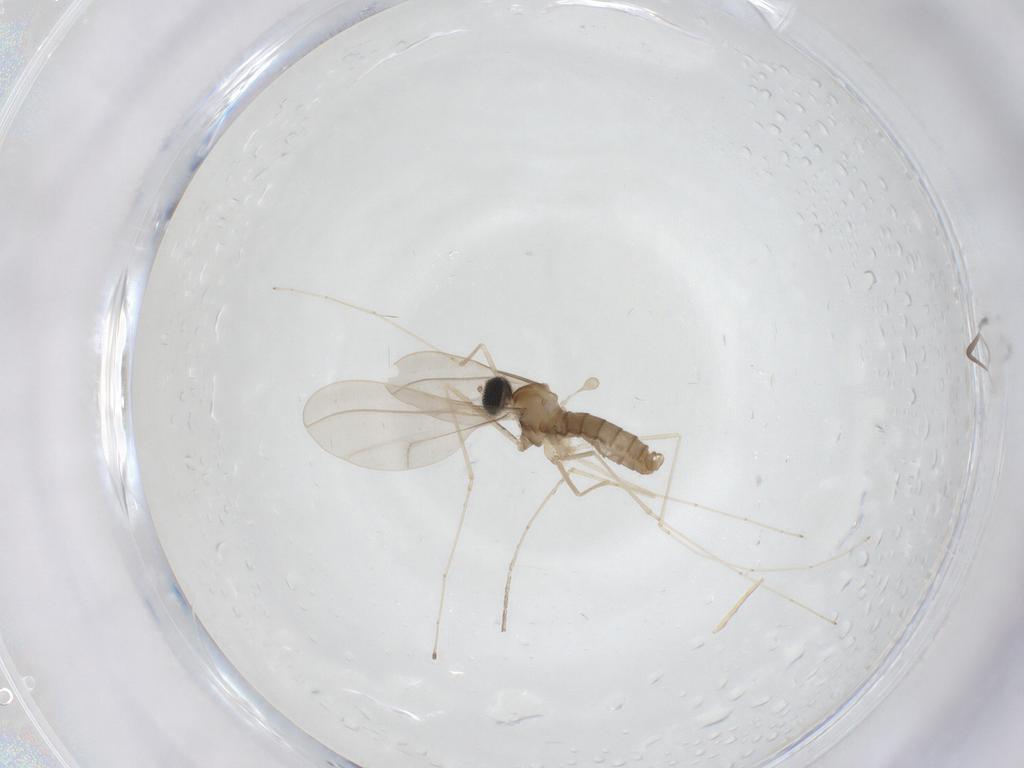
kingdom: Animalia
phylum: Arthropoda
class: Insecta
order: Diptera
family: Cecidomyiidae
